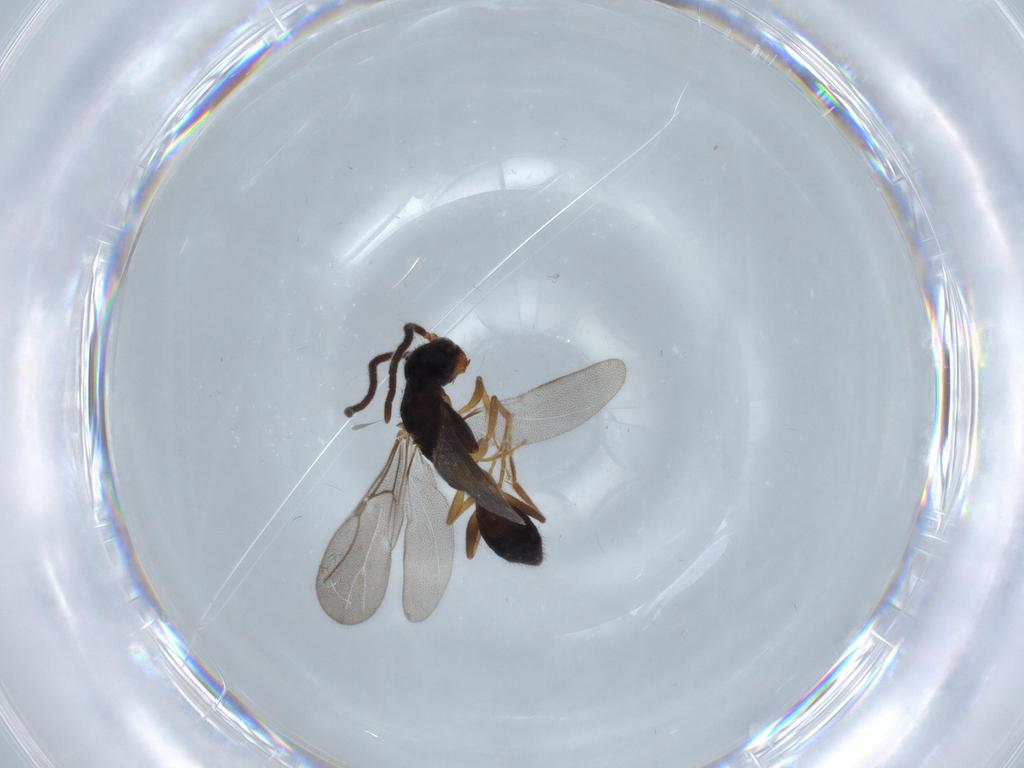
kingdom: Animalia
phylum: Arthropoda
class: Insecta
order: Hymenoptera
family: Bethylidae
